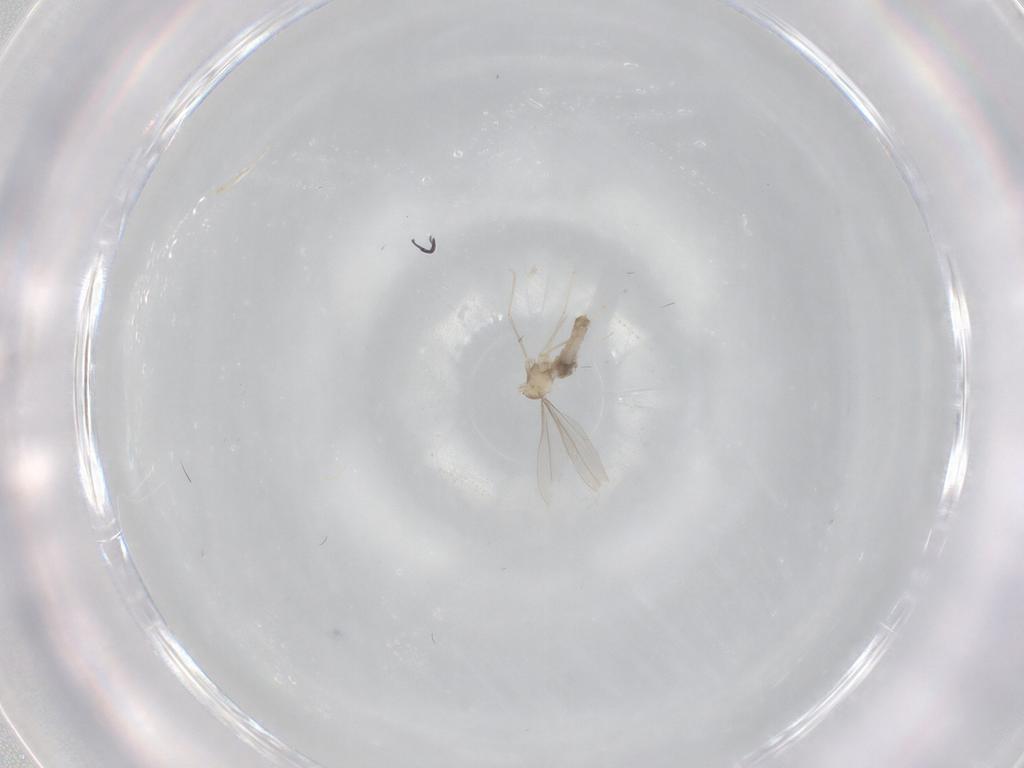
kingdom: Animalia
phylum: Arthropoda
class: Insecta
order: Diptera
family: Cecidomyiidae
